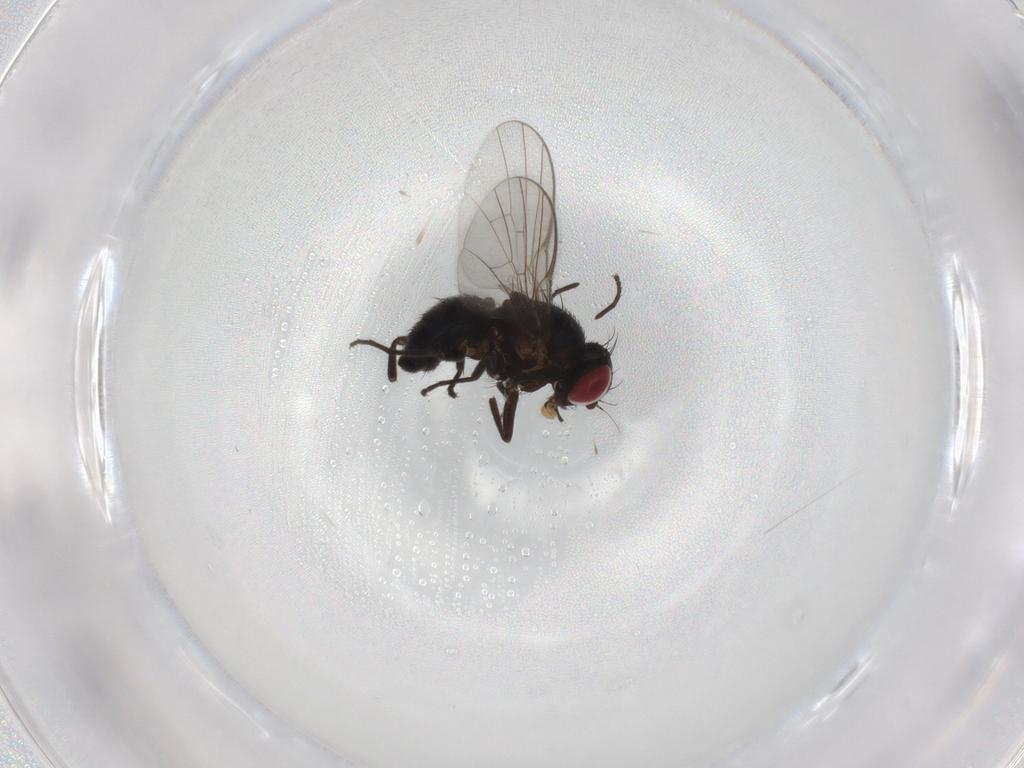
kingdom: Animalia
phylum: Arthropoda
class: Insecta
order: Diptera
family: Agromyzidae
